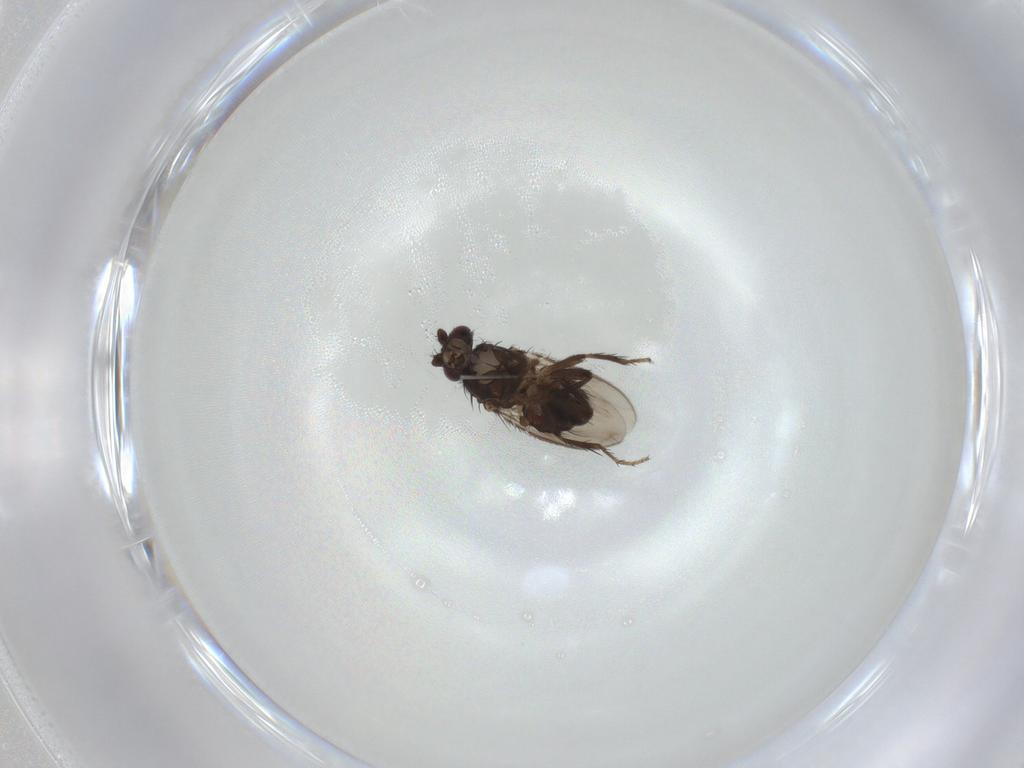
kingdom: Animalia
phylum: Arthropoda
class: Insecta
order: Diptera
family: Sphaeroceridae
